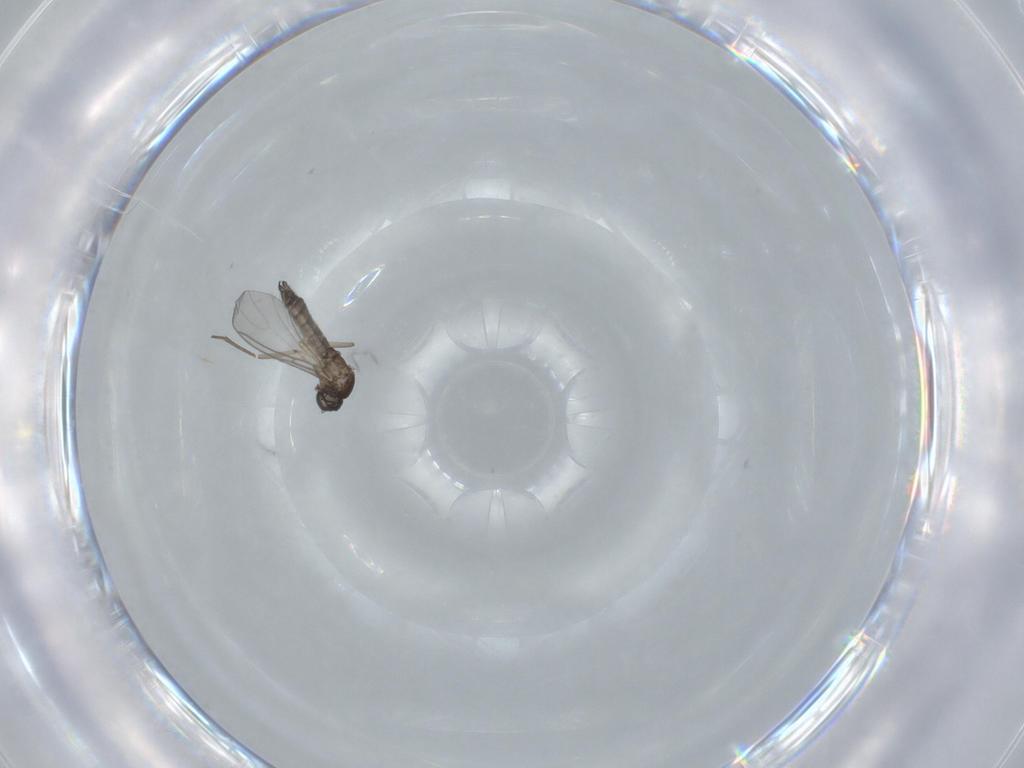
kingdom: Animalia
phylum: Arthropoda
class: Insecta
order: Diptera
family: Sciaridae
